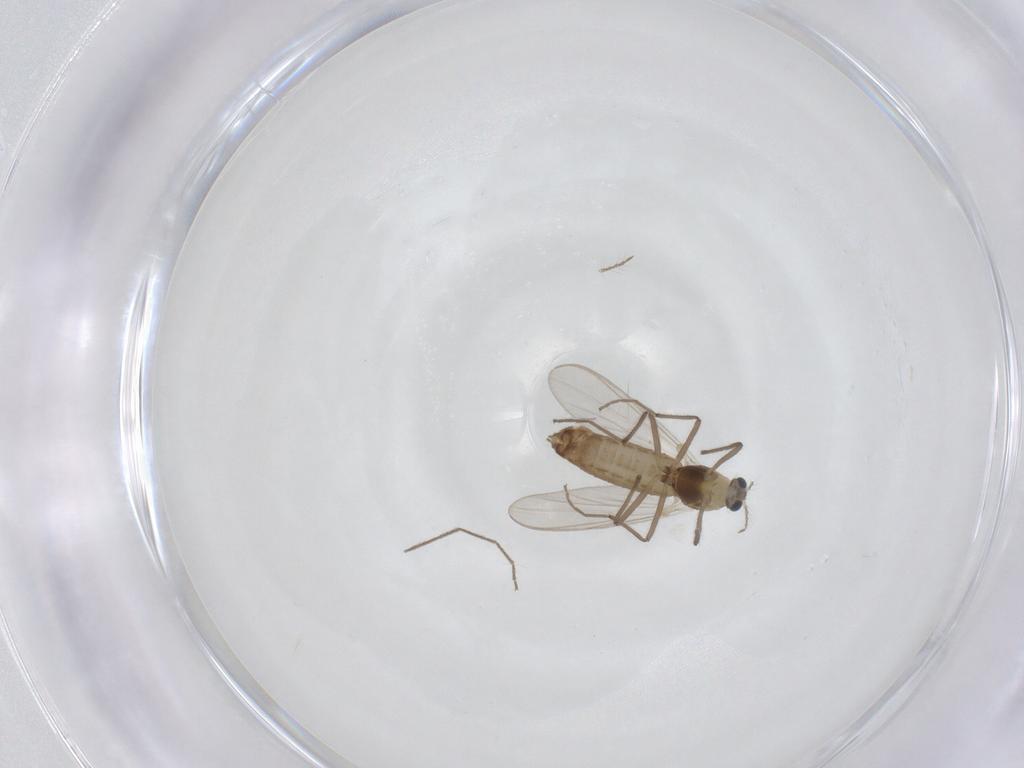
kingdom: Animalia
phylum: Arthropoda
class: Insecta
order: Diptera
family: Chironomidae
